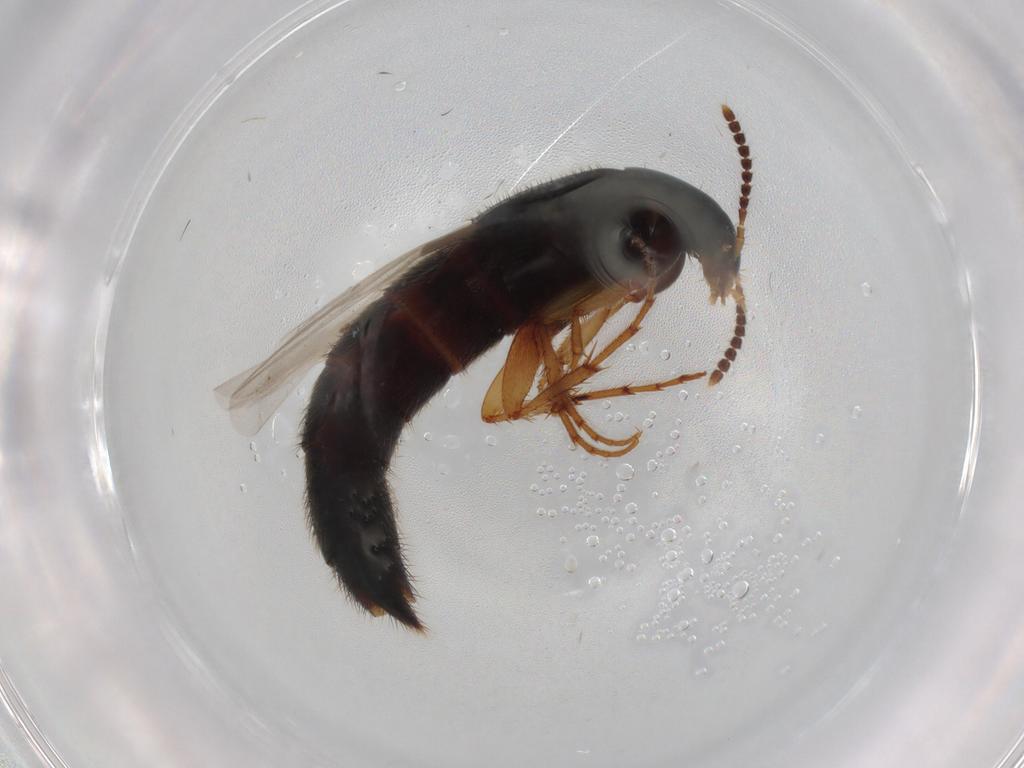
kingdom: Animalia
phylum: Arthropoda
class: Insecta
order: Coleoptera
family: Staphylinidae
